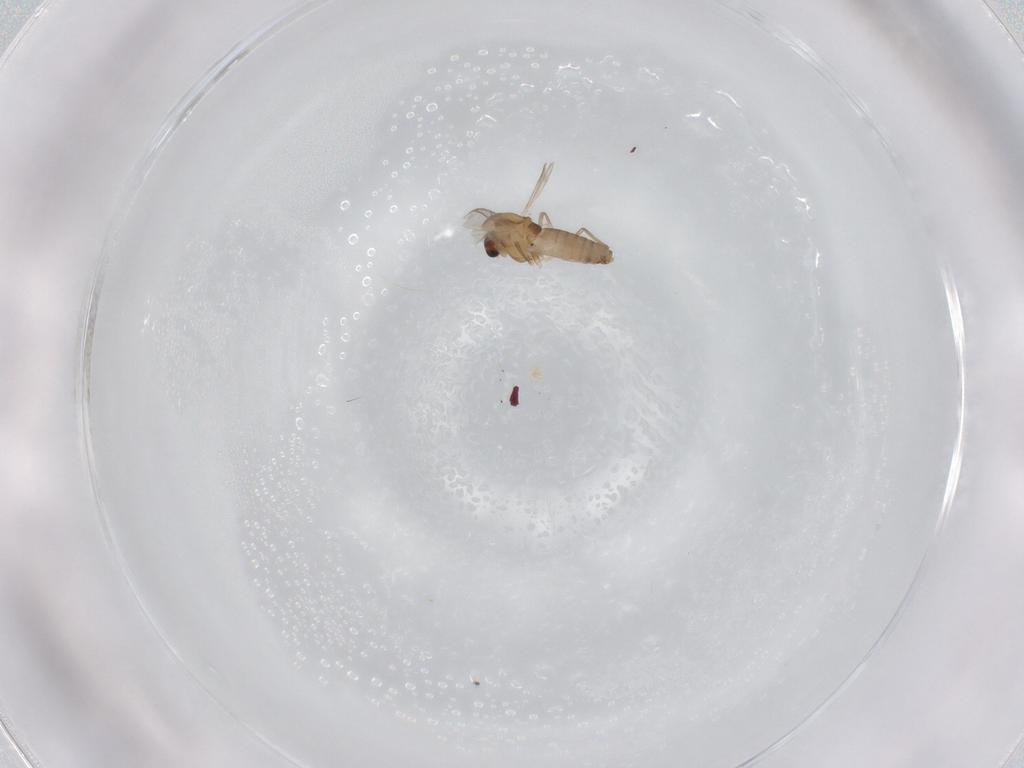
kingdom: Animalia
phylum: Arthropoda
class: Insecta
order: Diptera
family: Chironomidae
